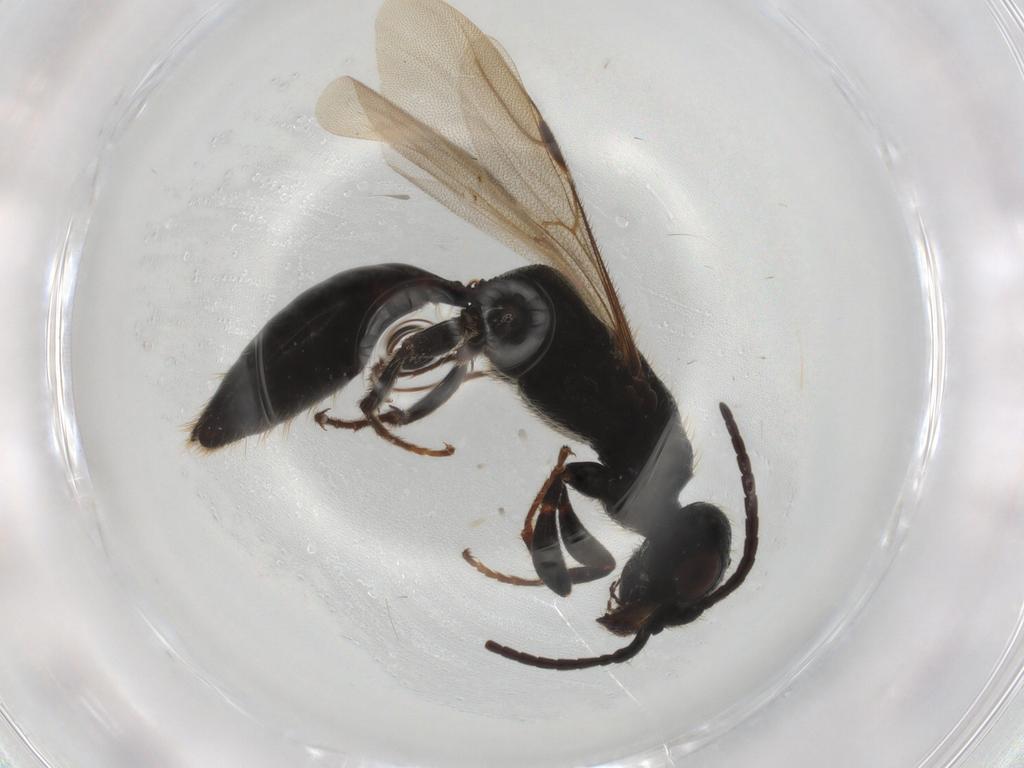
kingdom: Animalia
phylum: Arthropoda
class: Insecta
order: Hymenoptera
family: Bethylidae
